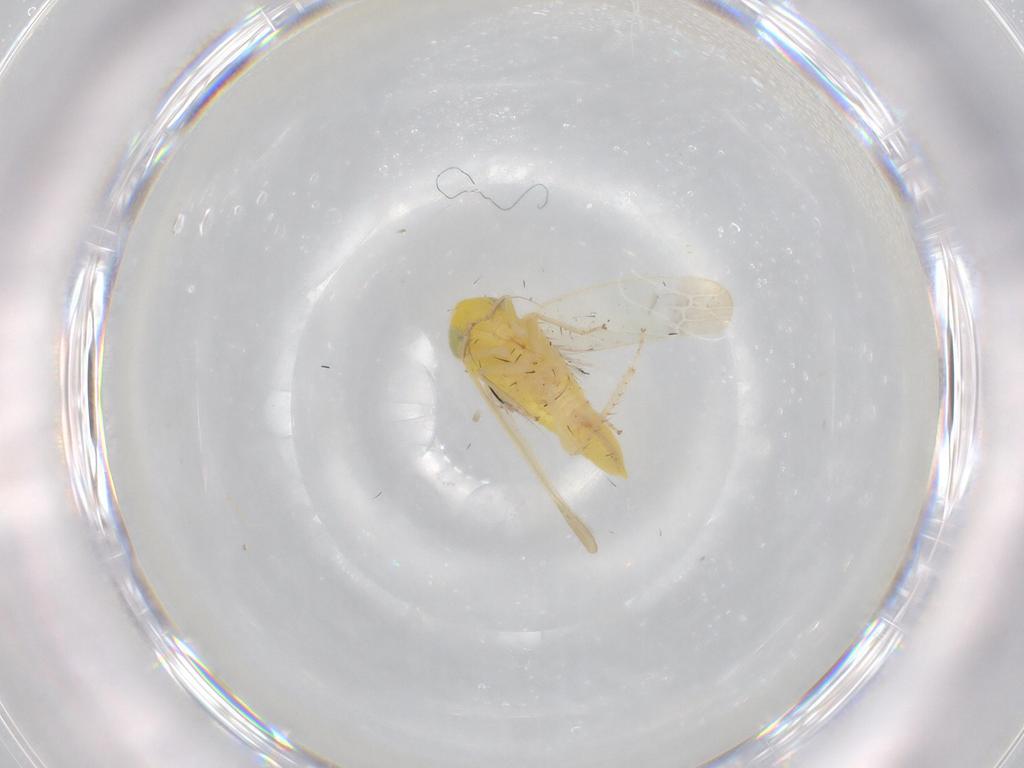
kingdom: Animalia
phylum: Arthropoda
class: Insecta
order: Hemiptera
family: Cicadellidae
